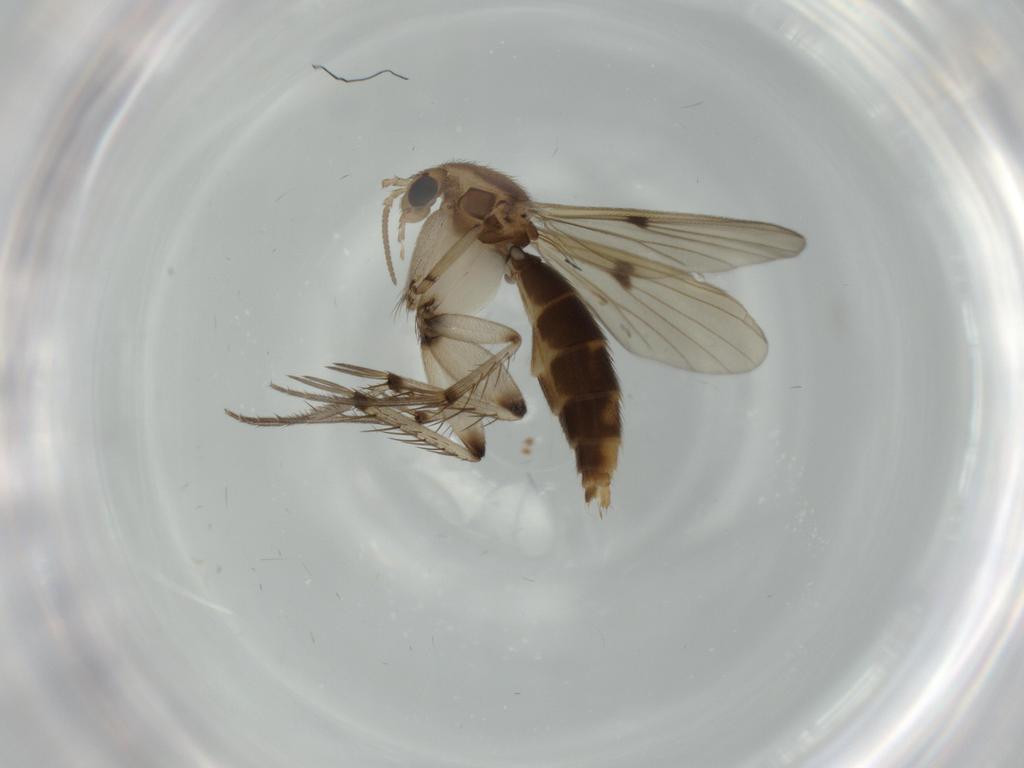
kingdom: Animalia
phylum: Arthropoda
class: Insecta
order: Diptera
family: Mycetophilidae
